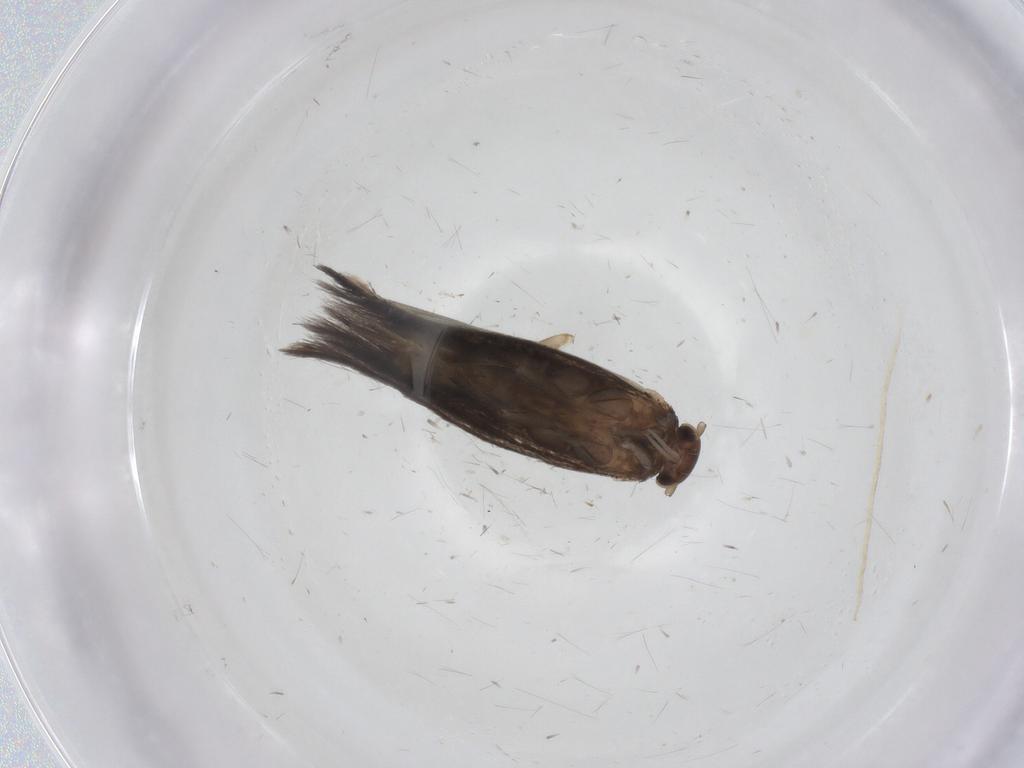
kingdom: Animalia
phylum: Arthropoda
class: Insecta
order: Lepidoptera
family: Elachistidae
